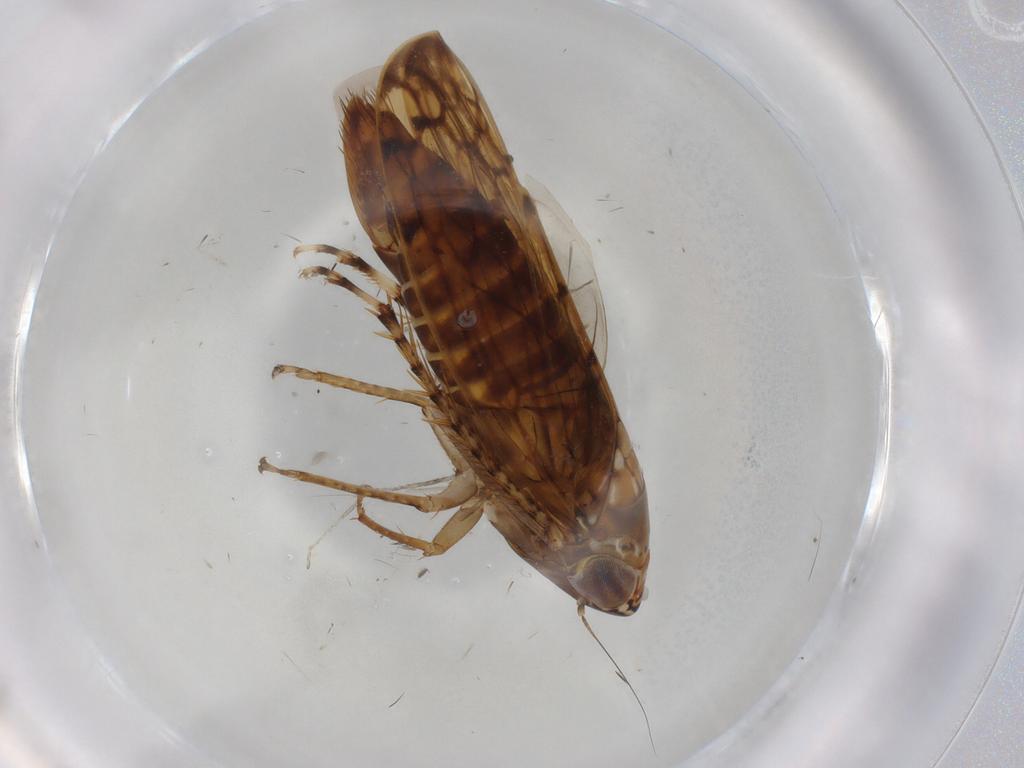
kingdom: Animalia
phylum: Arthropoda
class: Insecta
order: Hemiptera
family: Cicadellidae
